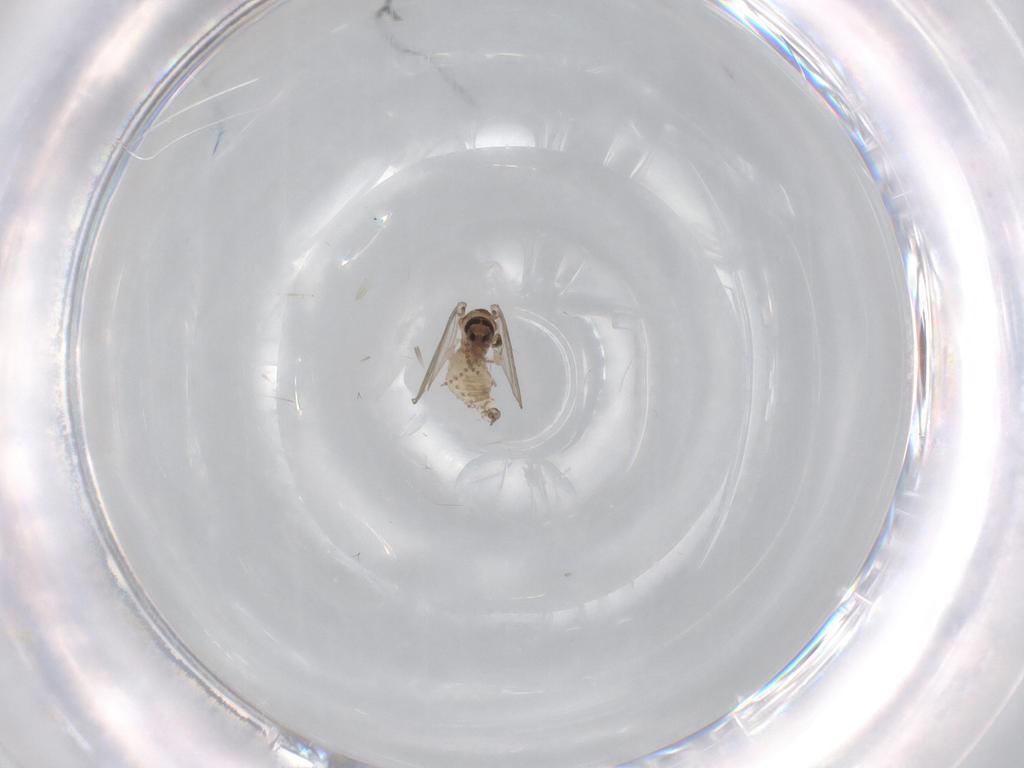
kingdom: Animalia
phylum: Arthropoda
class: Insecta
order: Diptera
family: Psychodidae
